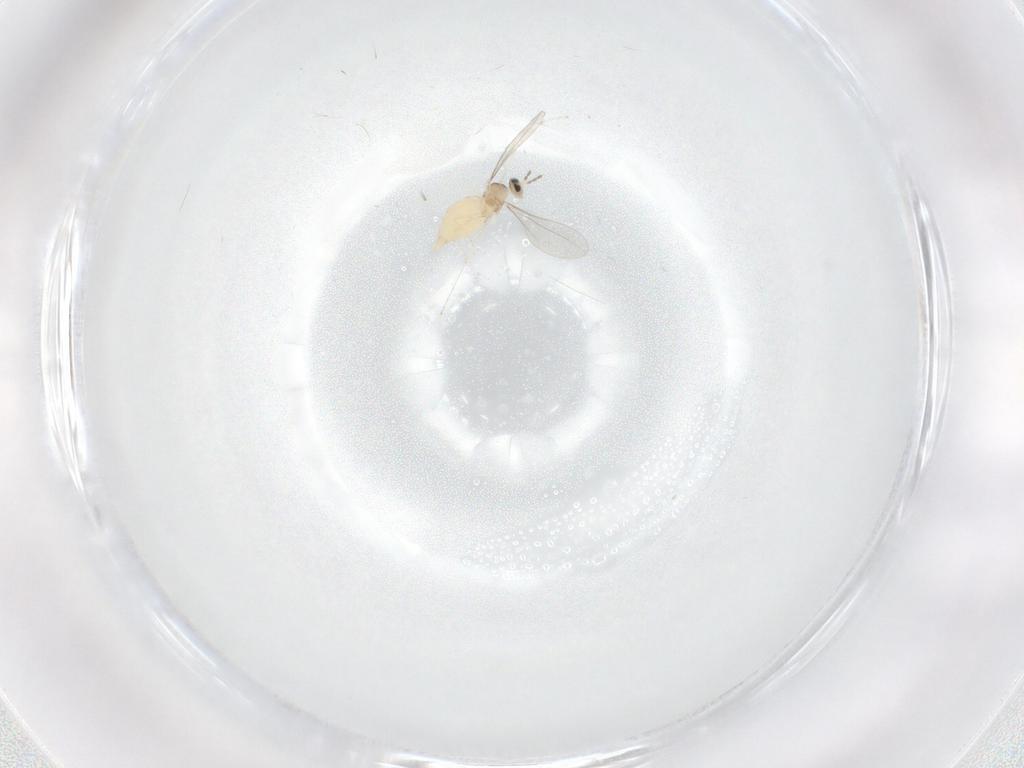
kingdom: Animalia
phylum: Arthropoda
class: Insecta
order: Diptera
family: Cecidomyiidae
